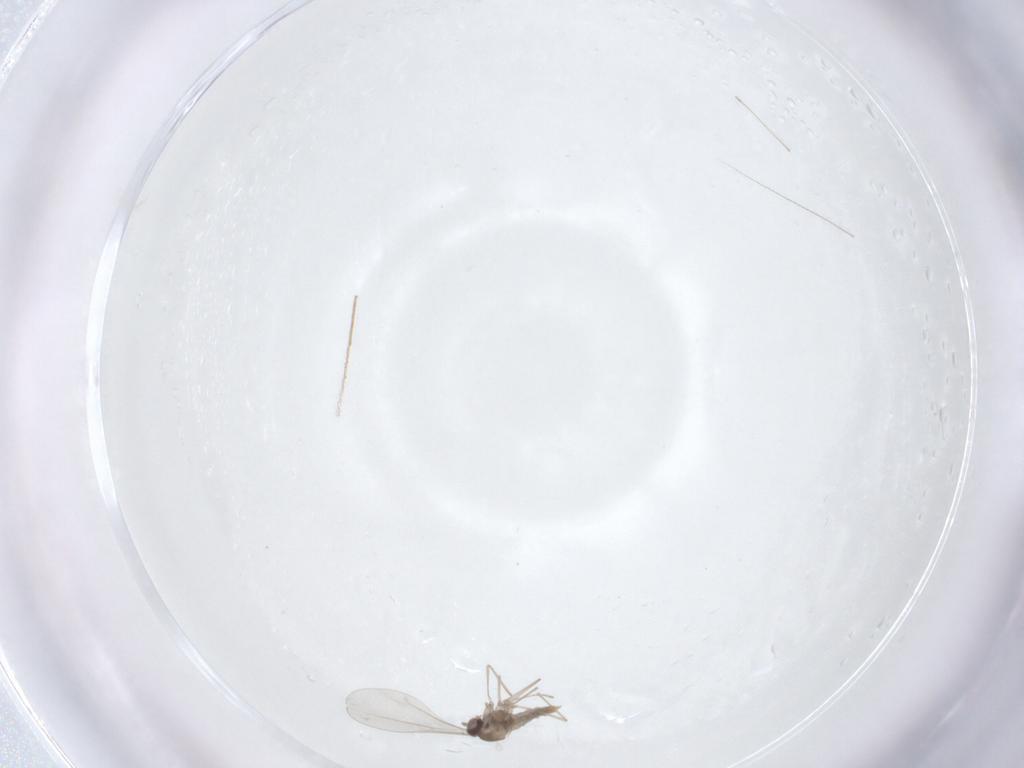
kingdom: Animalia
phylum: Arthropoda
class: Insecta
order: Diptera
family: Cecidomyiidae
